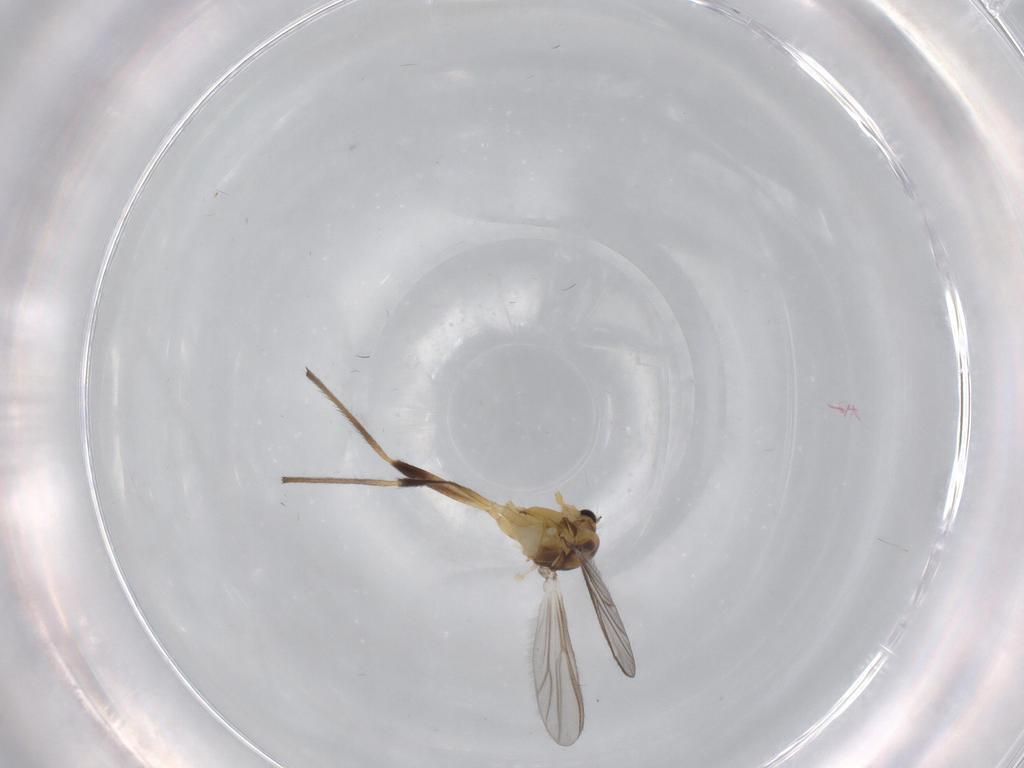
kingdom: Animalia
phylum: Arthropoda
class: Insecta
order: Diptera
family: Chironomidae
